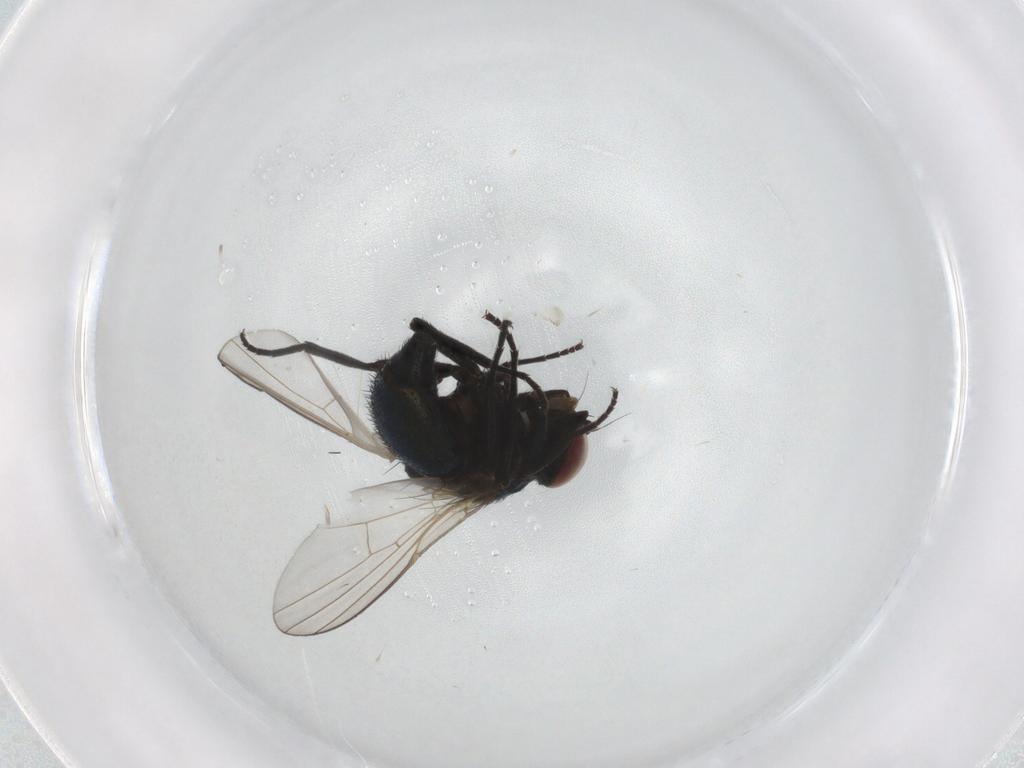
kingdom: Animalia
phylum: Arthropoda
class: Insecta
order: Diptera
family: Agromyzidae
